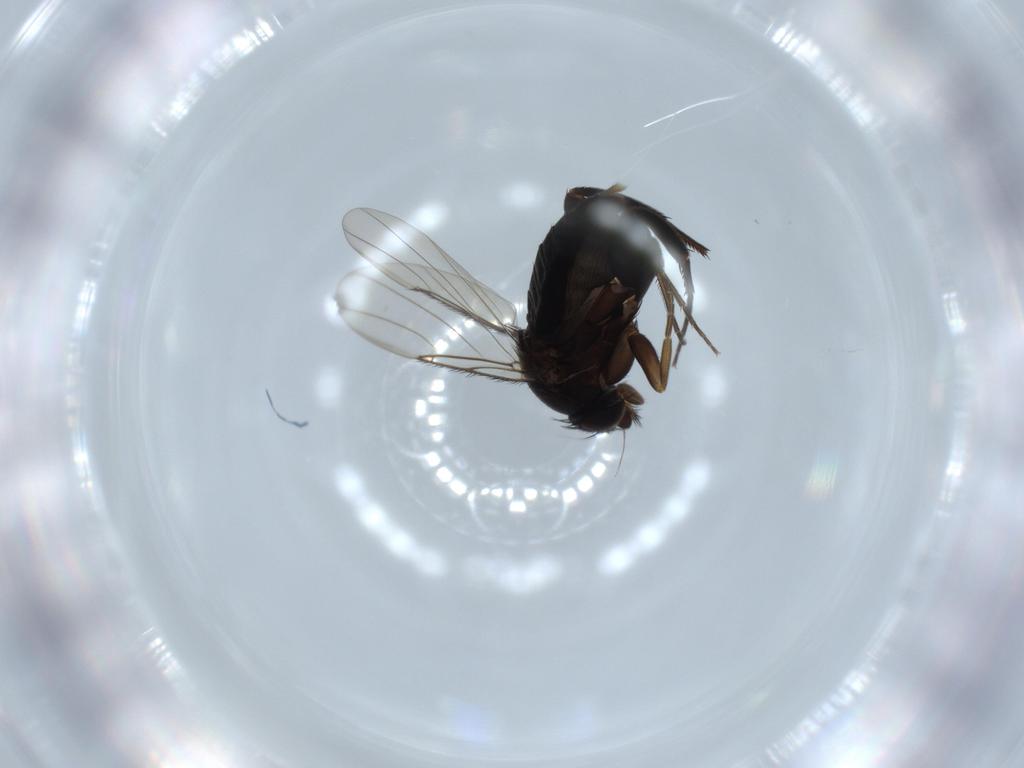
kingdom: Animalia
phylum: Arthropoda
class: Insecta
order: Diptera
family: Phoridae
